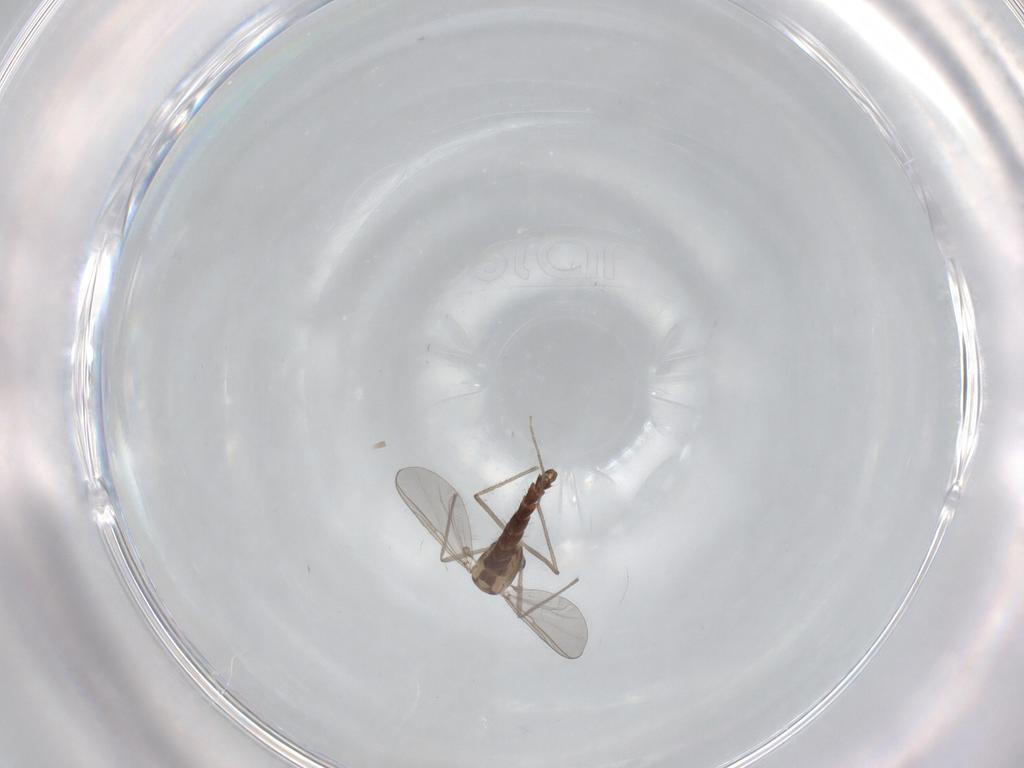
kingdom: Animalia
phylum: Arthropoda
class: Insecta
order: Diptera
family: Chironomidae
